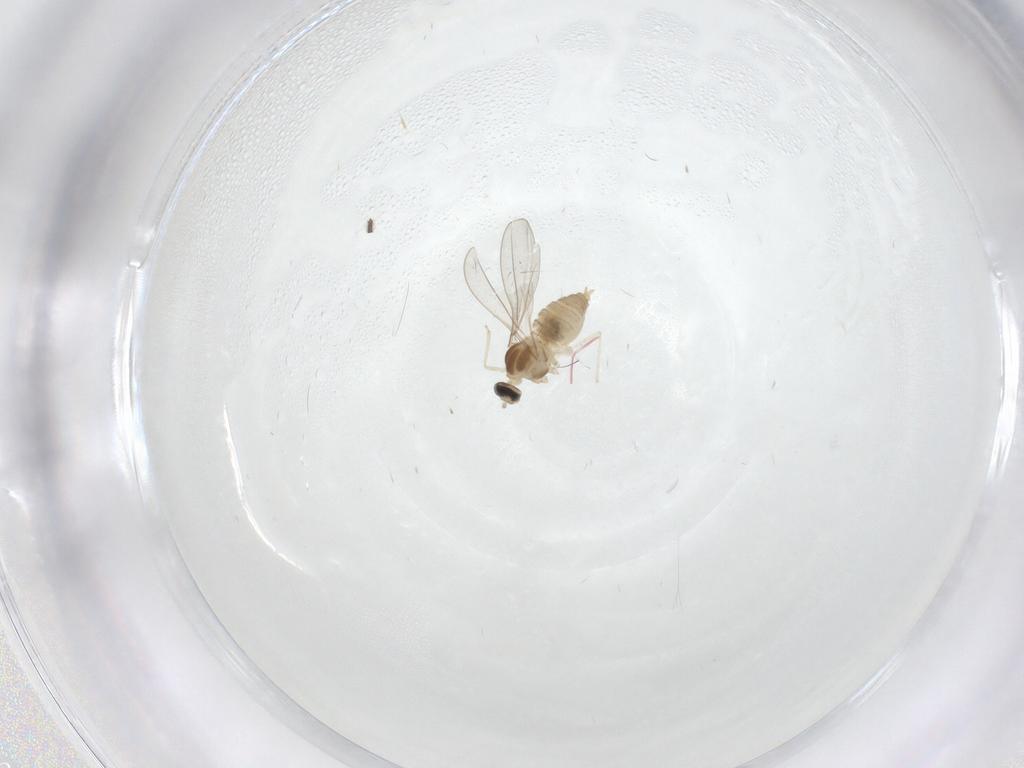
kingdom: Animalia
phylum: Arthropoda
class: Insecta
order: Diptera
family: Cecidomyiidae
